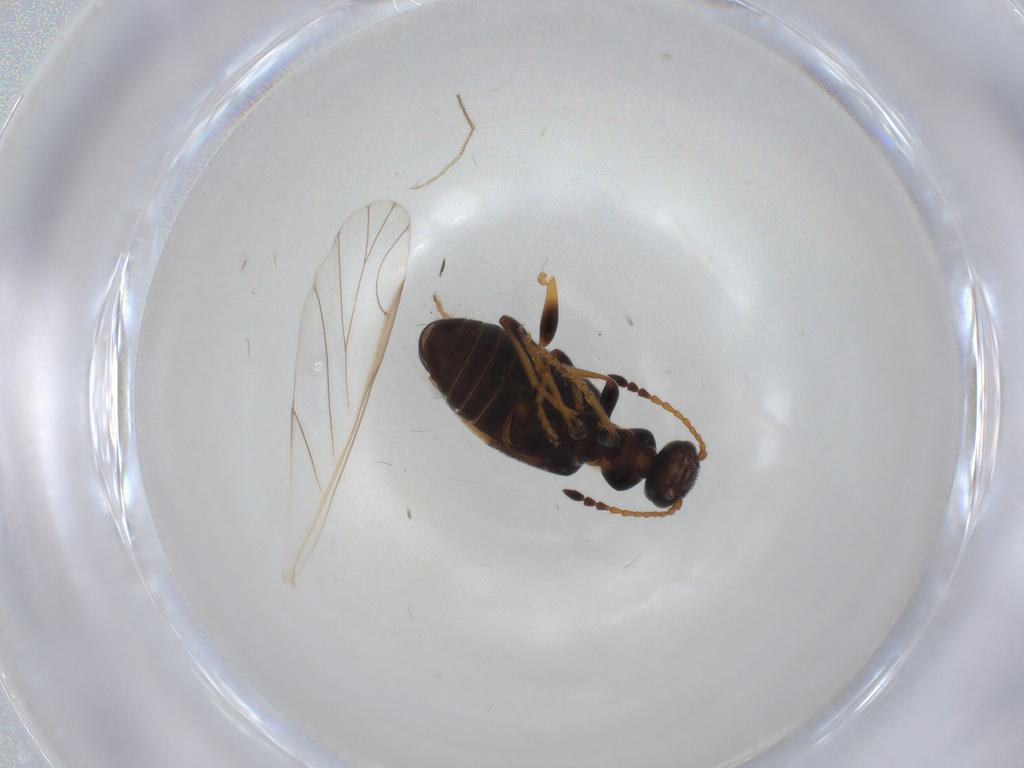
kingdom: Animalia
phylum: Arthropoda
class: Insecta
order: Coleoptera
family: Anthicidae
